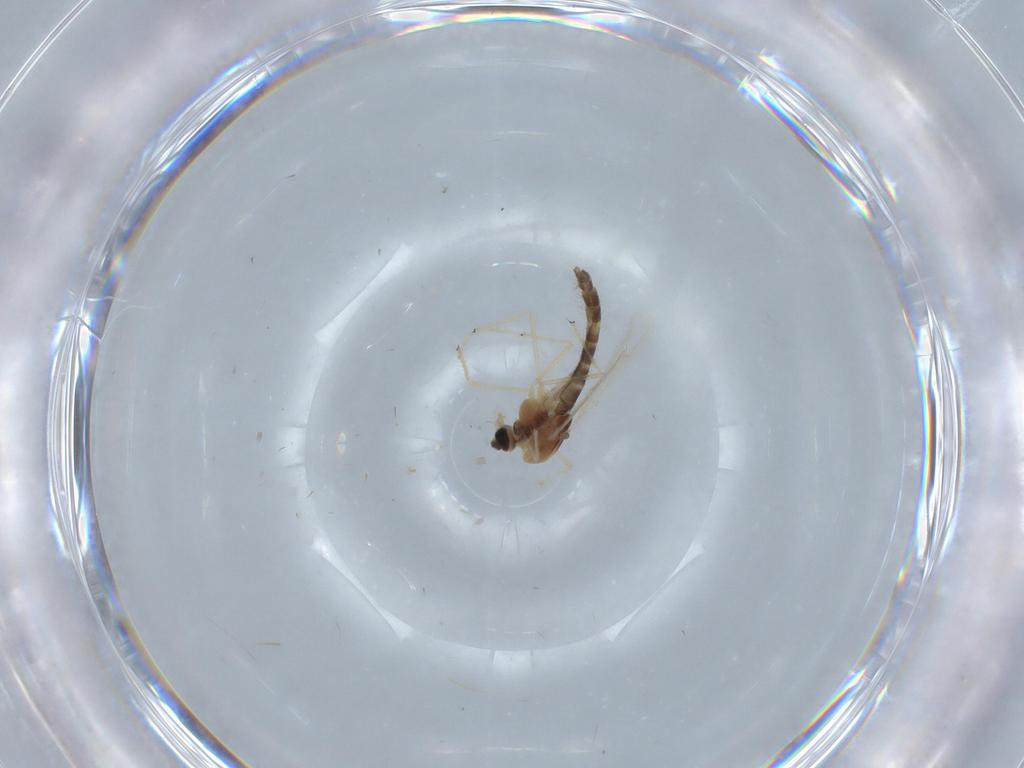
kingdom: Animalia
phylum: Arthropoda
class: Insecta
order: Diptera
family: Chironomidae
